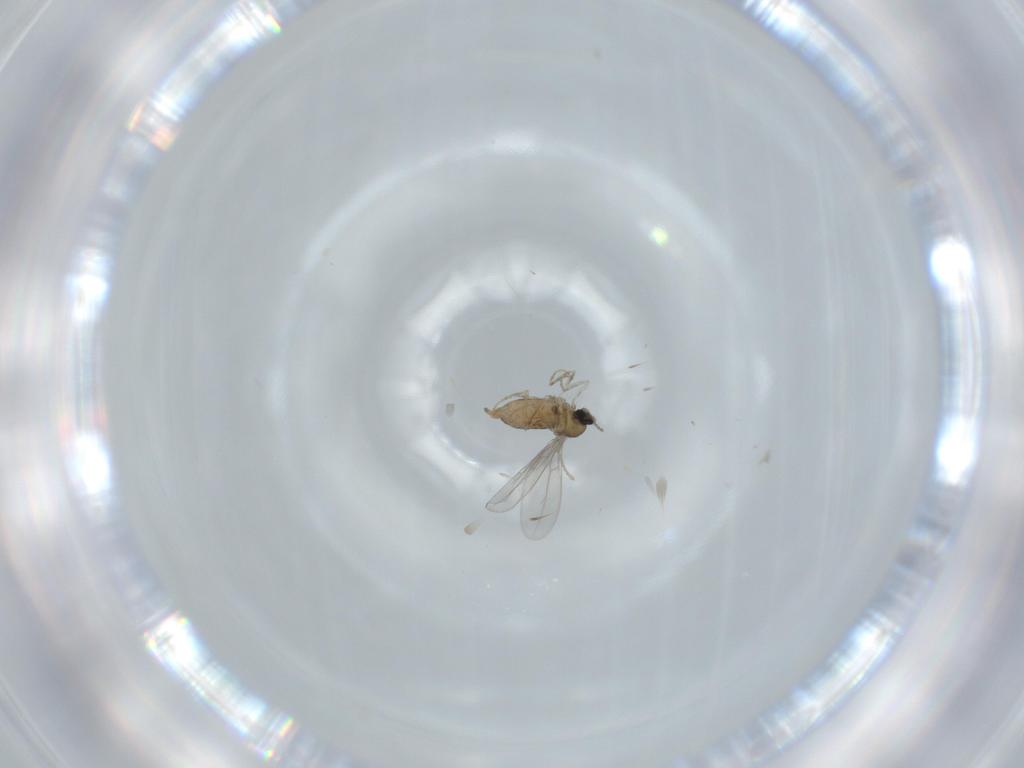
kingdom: Animalia
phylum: Arthropoda
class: Insecta
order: Diptera
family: Cecidomyiidae
